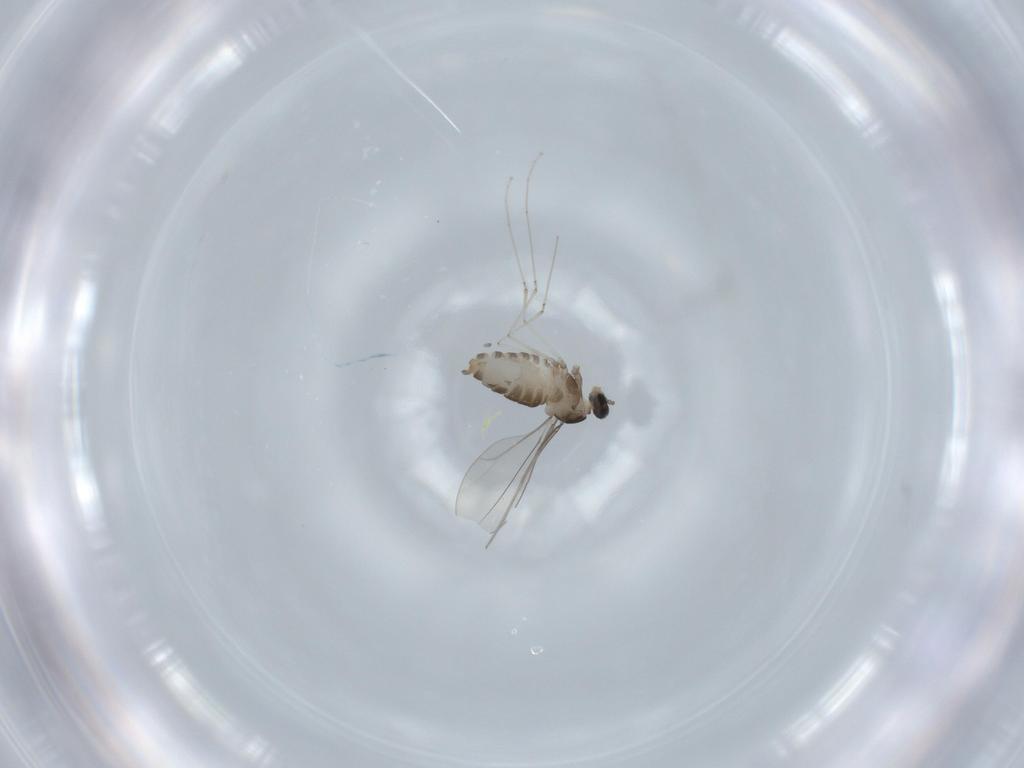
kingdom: Animalia
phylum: Arthropoda
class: Insecta
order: Diptera
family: Cecidomyiidae
